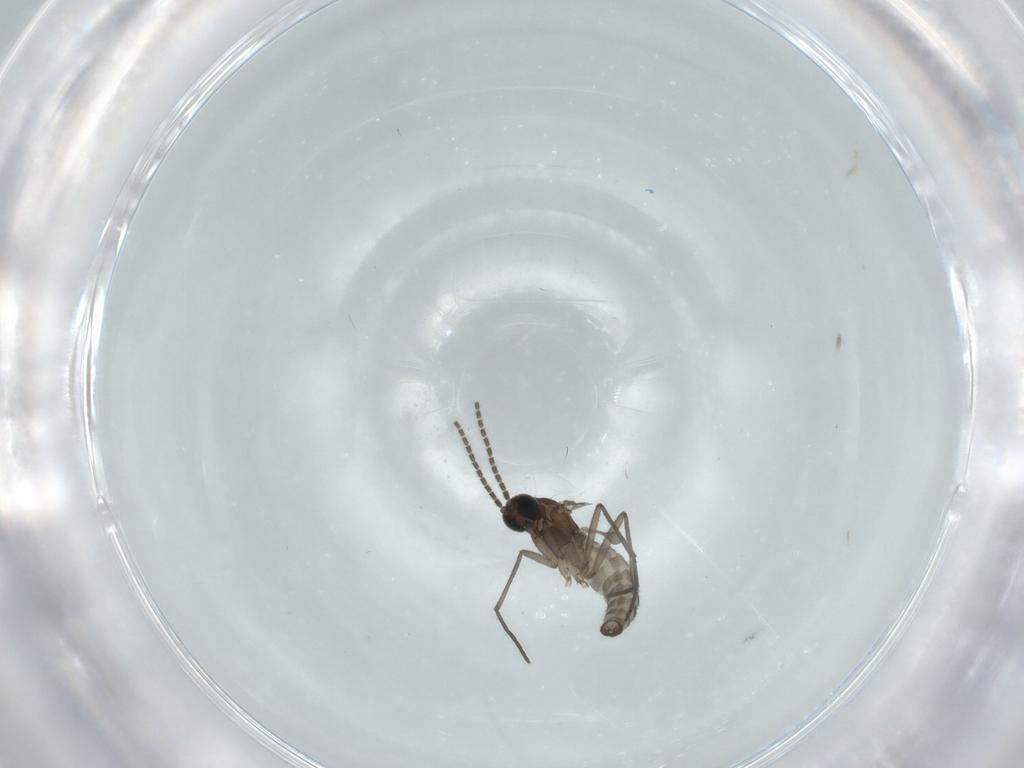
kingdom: Animalia
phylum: Arthropoda
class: Insecta
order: Diptera
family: Sciaridae
